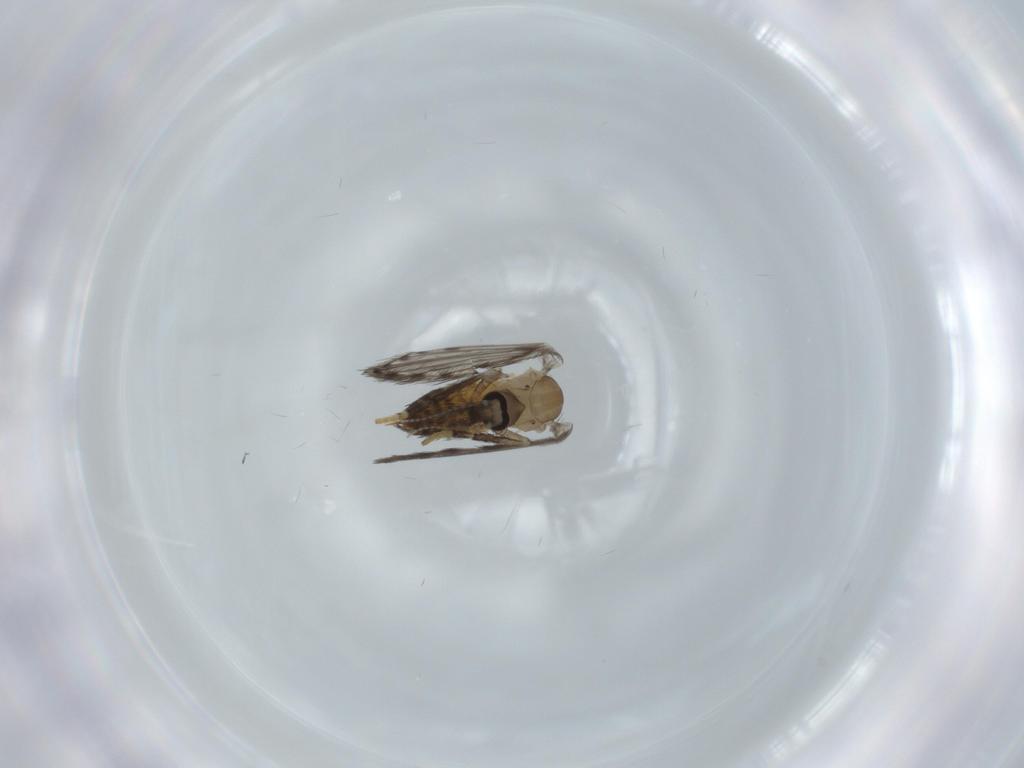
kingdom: Animalia
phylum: Arthropoda
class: Insecta
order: Diptera
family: Psychodidae
